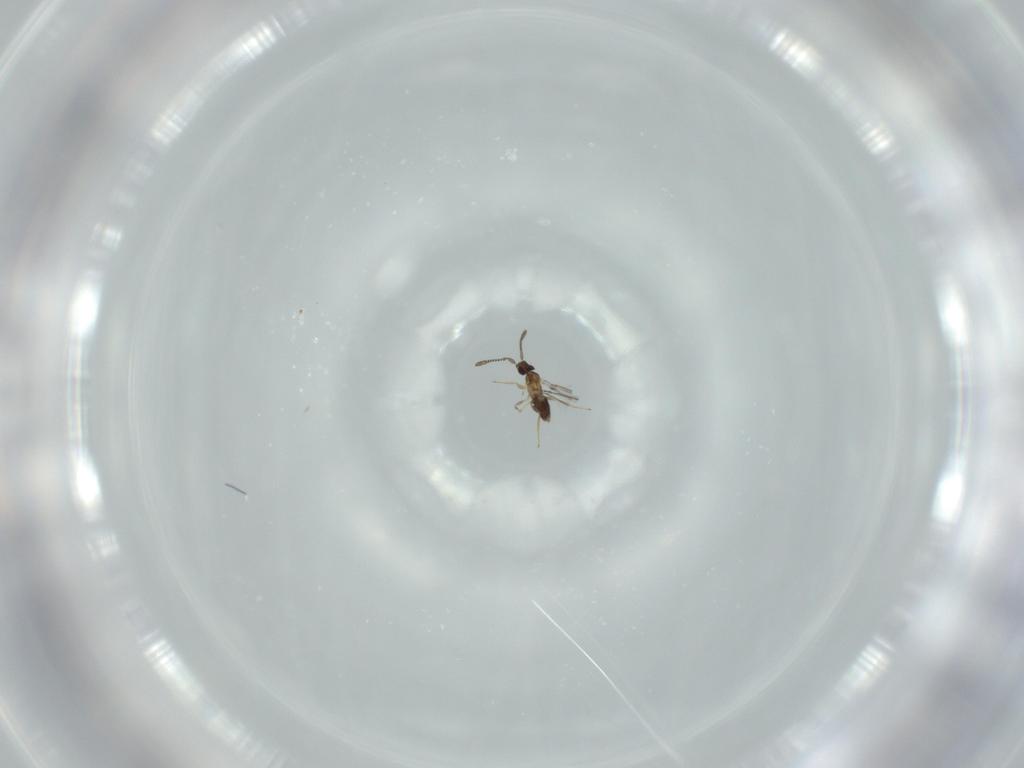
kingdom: Animalia
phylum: Arthropoda
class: Insecta
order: Hymenoptera
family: Mymaridae
